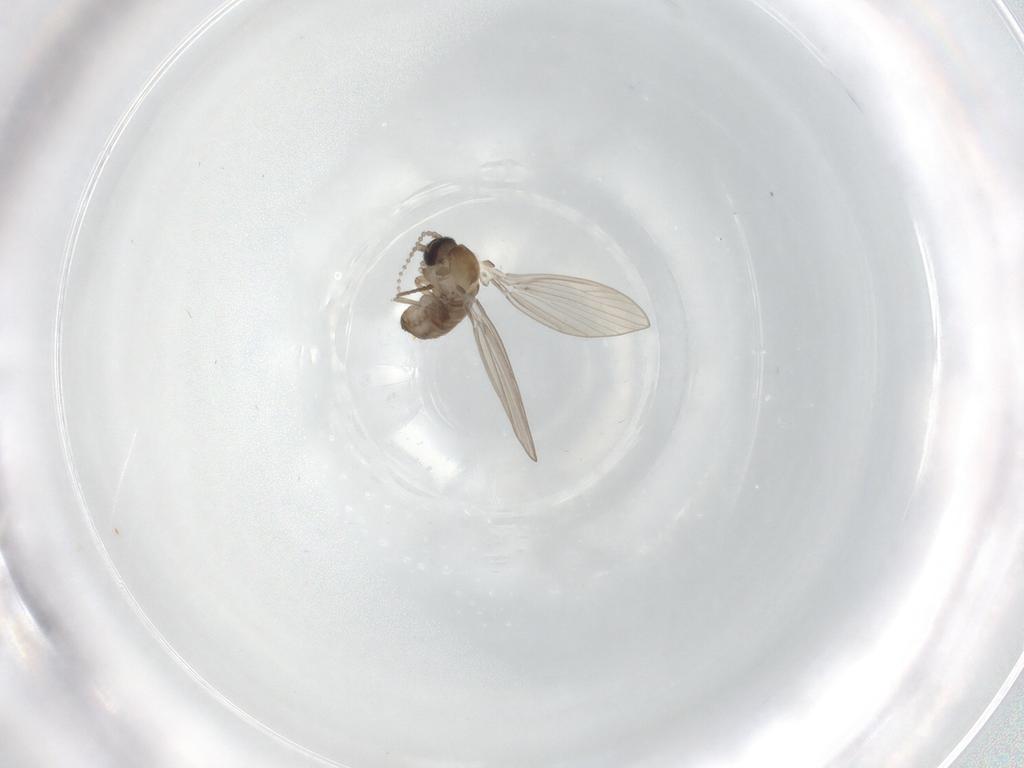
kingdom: Animalia
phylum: Arthropoda
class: Insecta
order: Diptera
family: Psychodidae
